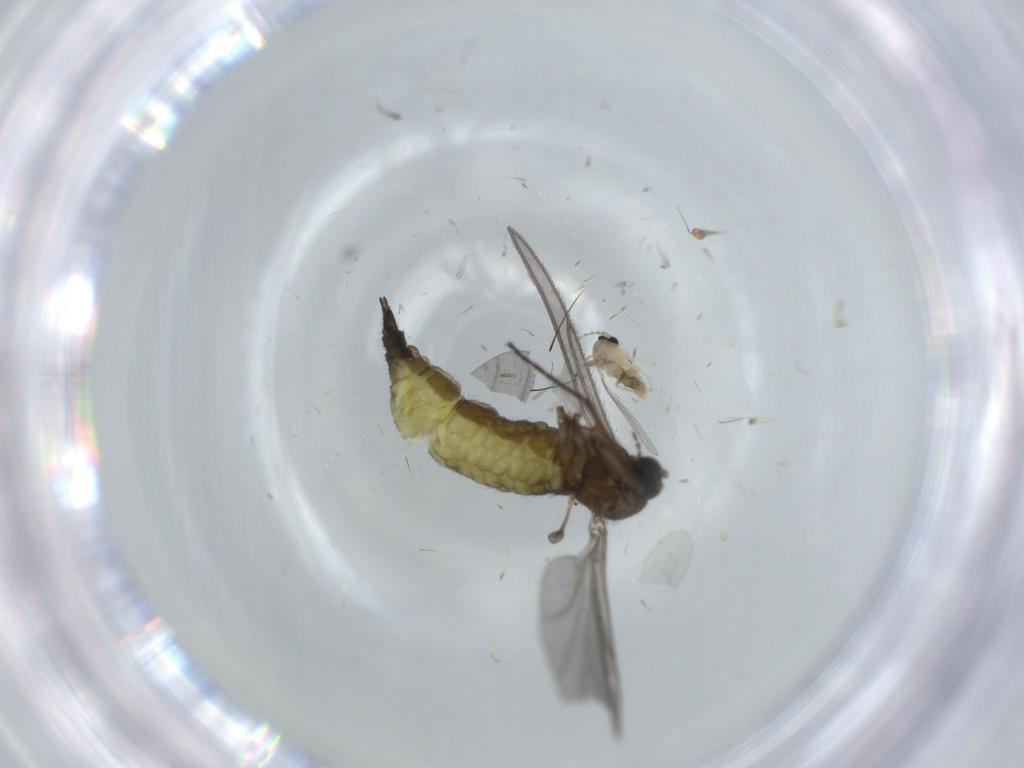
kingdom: Animalia
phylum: Arthropoda
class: Insecta
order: Diptera
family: Cecidomyiidae
